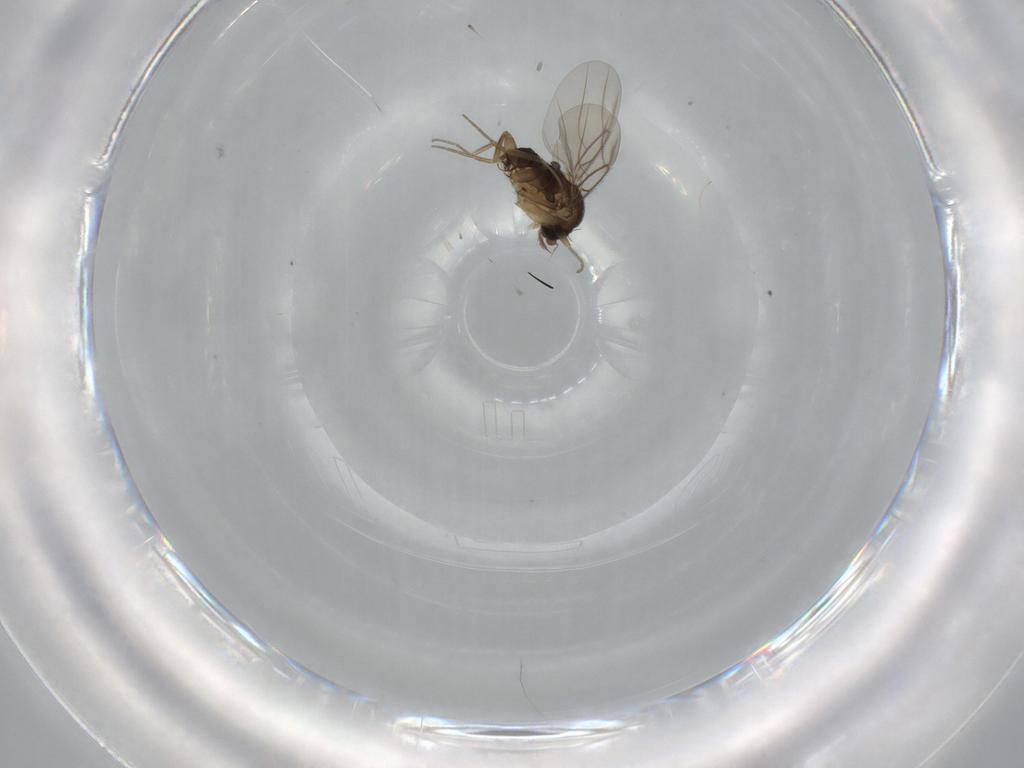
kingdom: Animalia
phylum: Arthropoda
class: Insecta
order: Diptera
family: Phoridae
